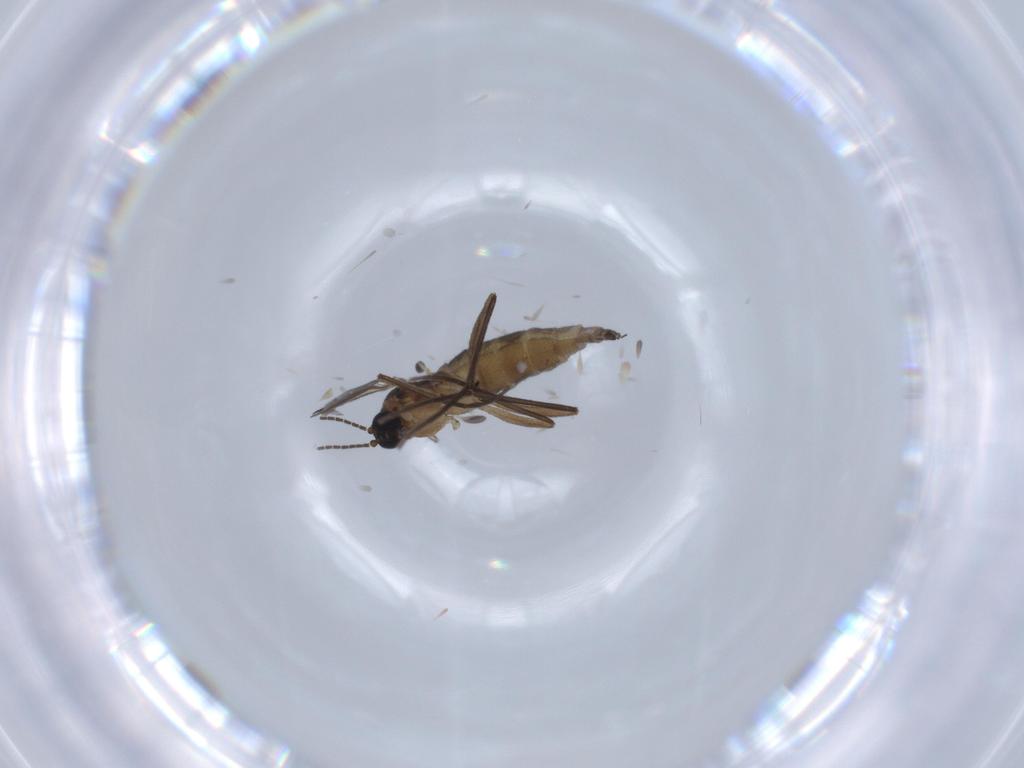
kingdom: Animalia
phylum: Arthropoda
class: Insecta
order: Diptera
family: Sciaridae
